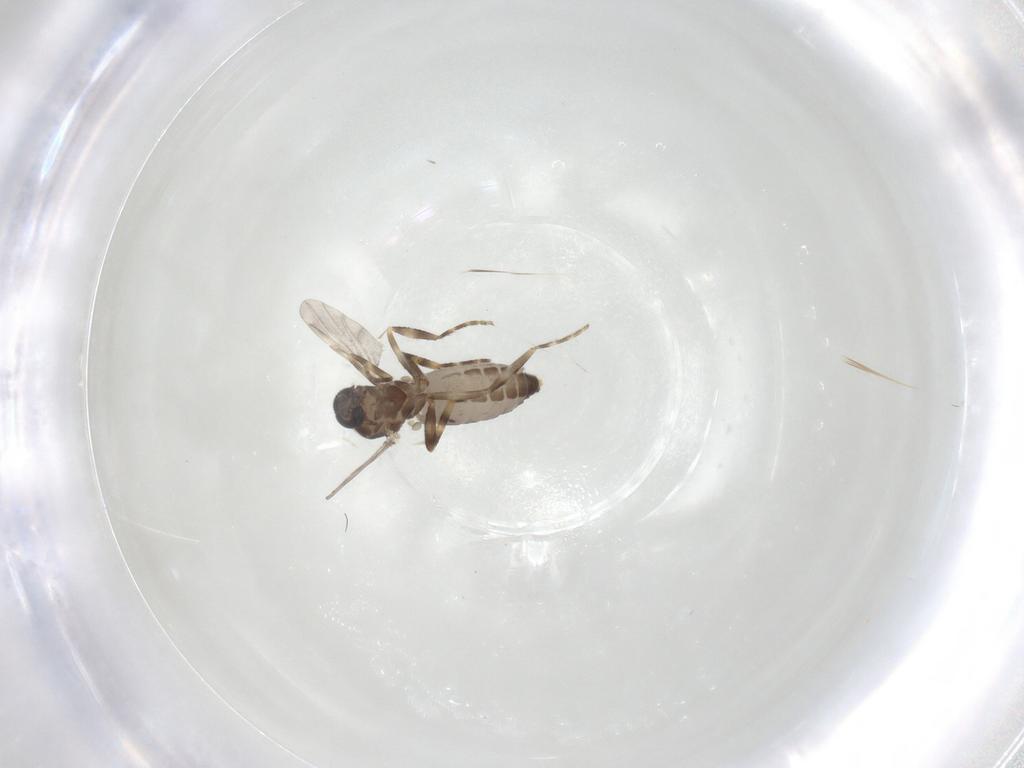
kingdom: Animalia
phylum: Arthropoda
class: Insecta
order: Diptera
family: Ceratopogonidae
